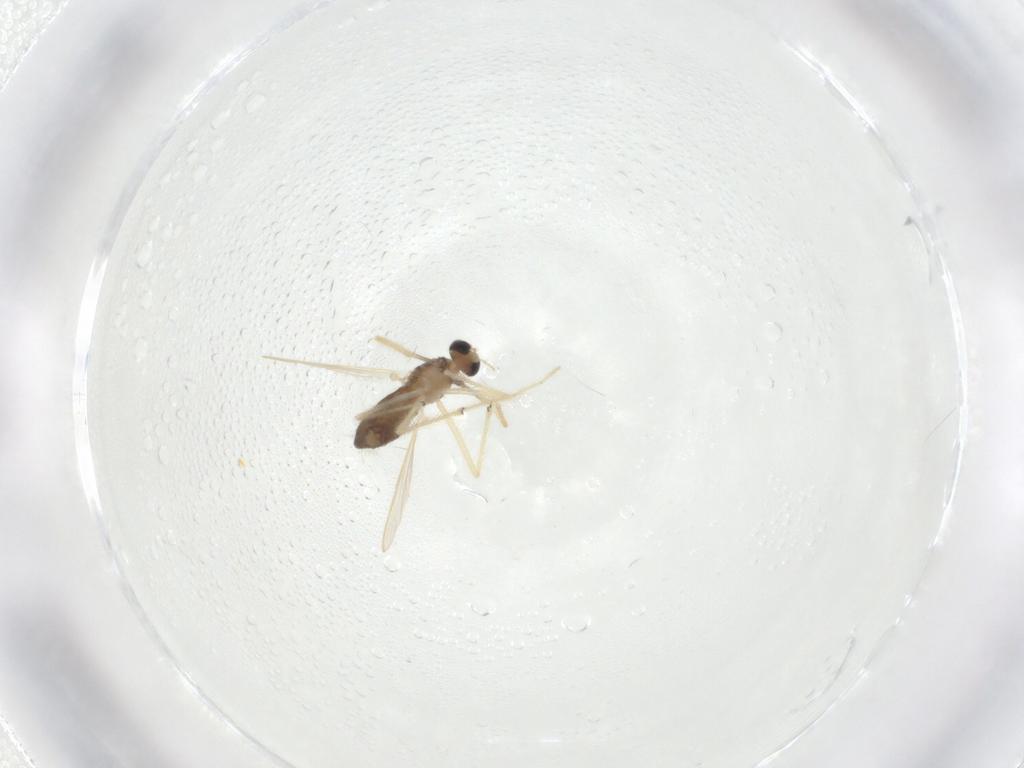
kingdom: Animalia
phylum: Arthropoda
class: Insecta
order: Diptera
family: Chironomidae
